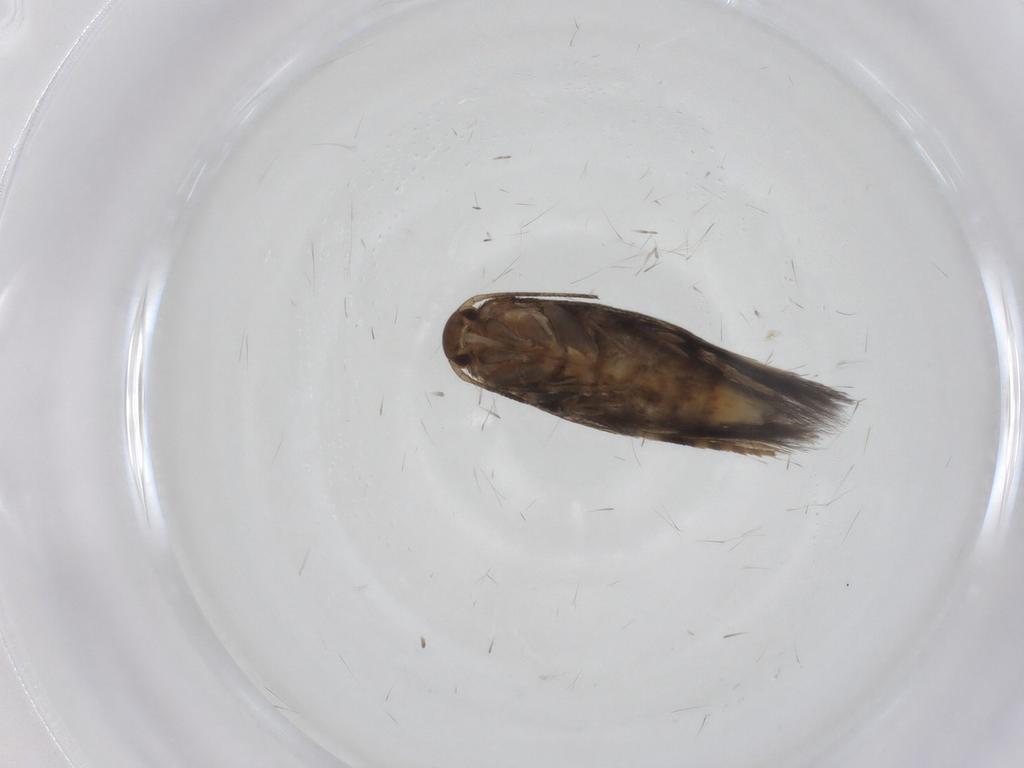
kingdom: Animalia
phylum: Arthropoda
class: Insecta
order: Lepidoptera
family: Elachistidae
